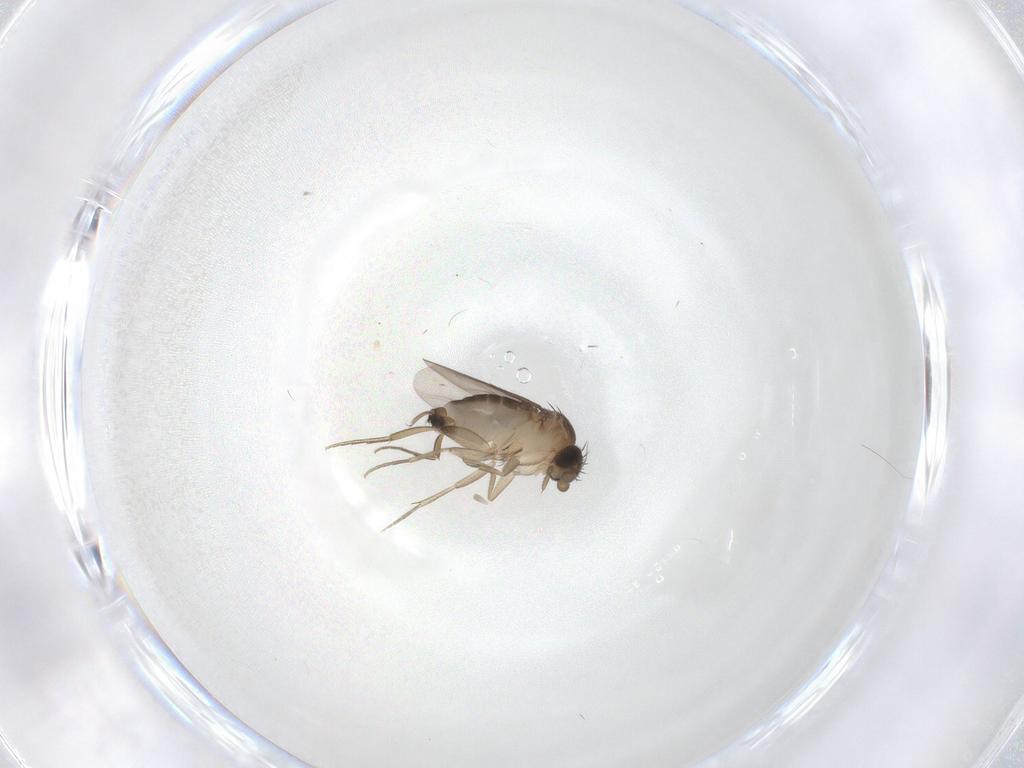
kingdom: Animalia
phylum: Arthropoda
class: Insecta
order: Diptera
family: Phoridae
